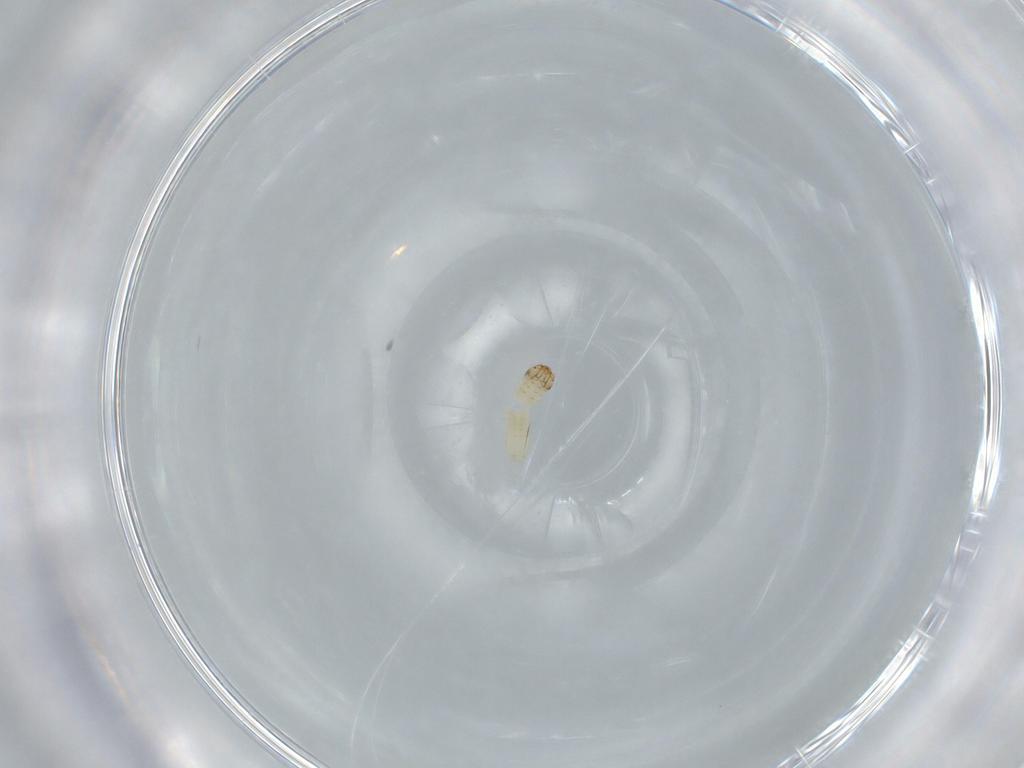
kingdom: Animalia
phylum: Arthropoda
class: Insecta
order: Lepidoptera
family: Tineidae
